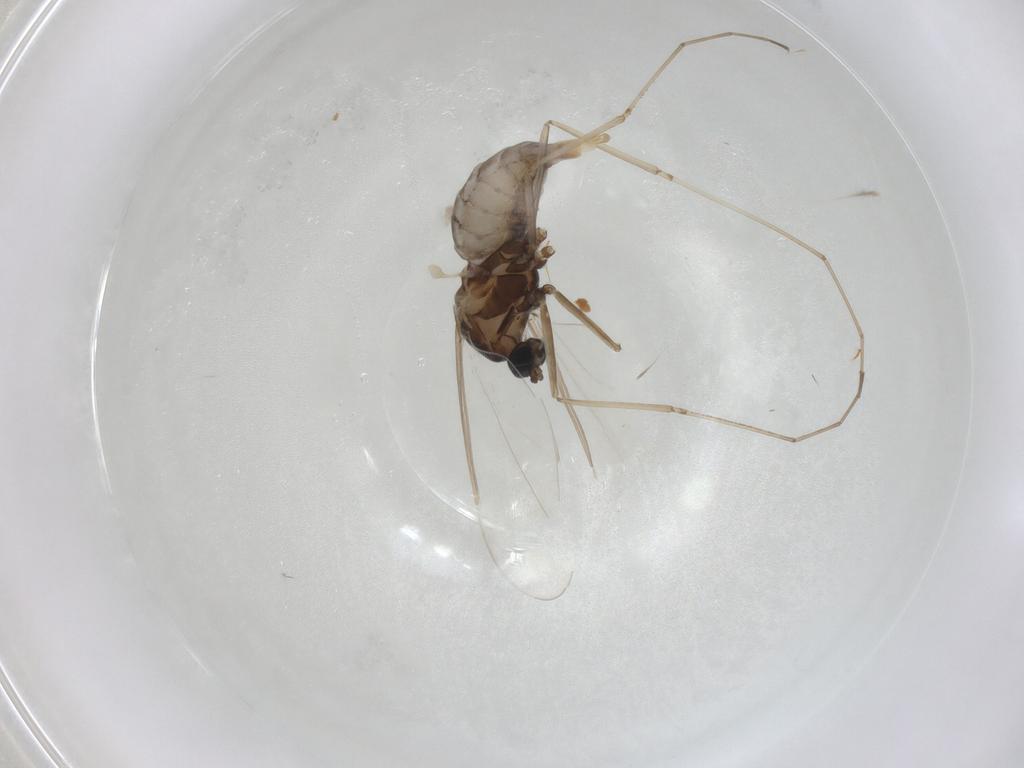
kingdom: Animalia
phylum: Arthropoda
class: Insecta
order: Diptera
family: Cecidomyiidae
